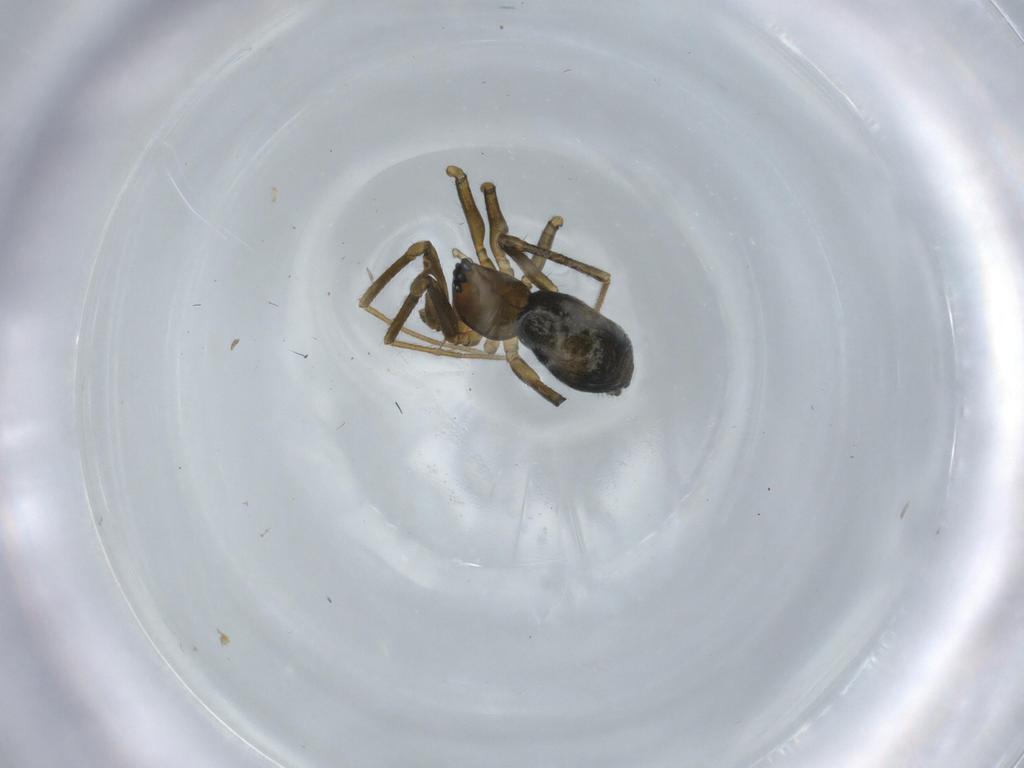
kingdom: Animalia
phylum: Arthropoda
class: Arachnida
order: Araneae
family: Linyphiidae
